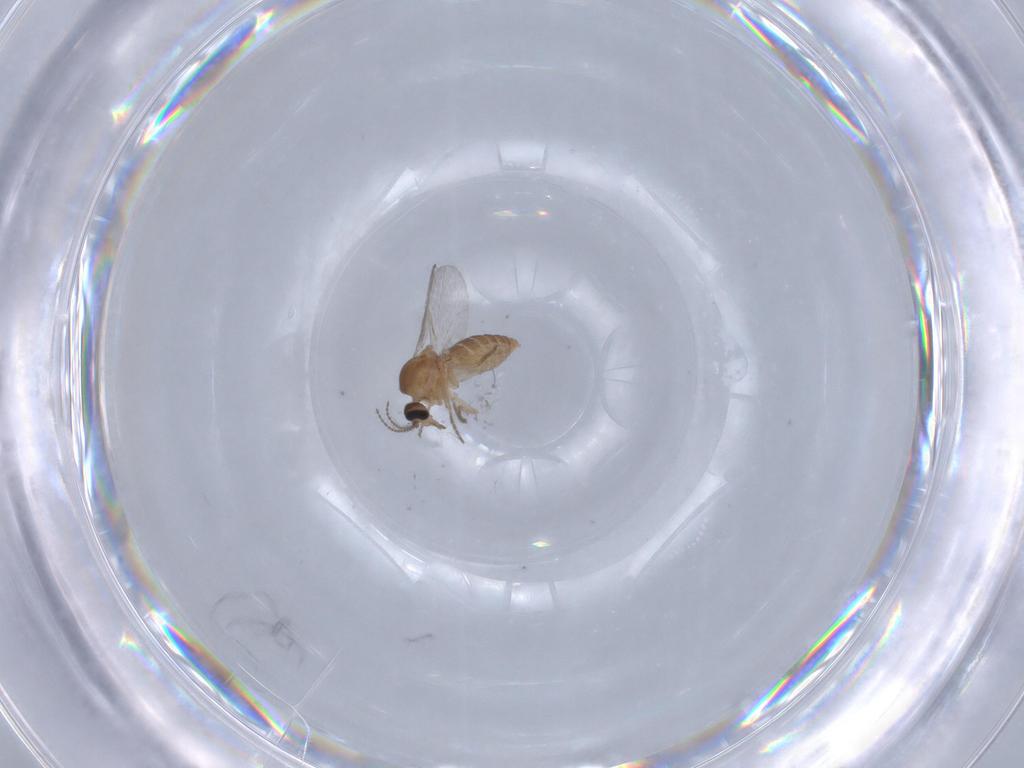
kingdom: Animalia
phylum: Arthropoda
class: Insecta
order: Diptera
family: Ceratopogonidae
